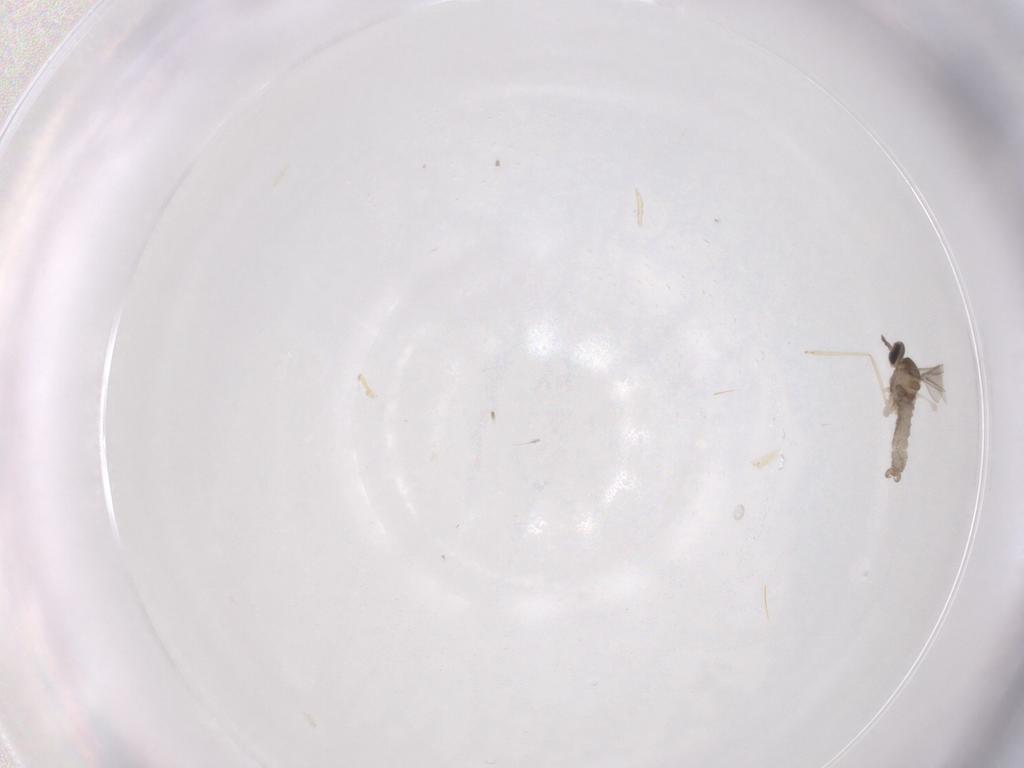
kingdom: Animalia
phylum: Arthropoda
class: Insecta
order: Diptera
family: Cecidomyiidae
